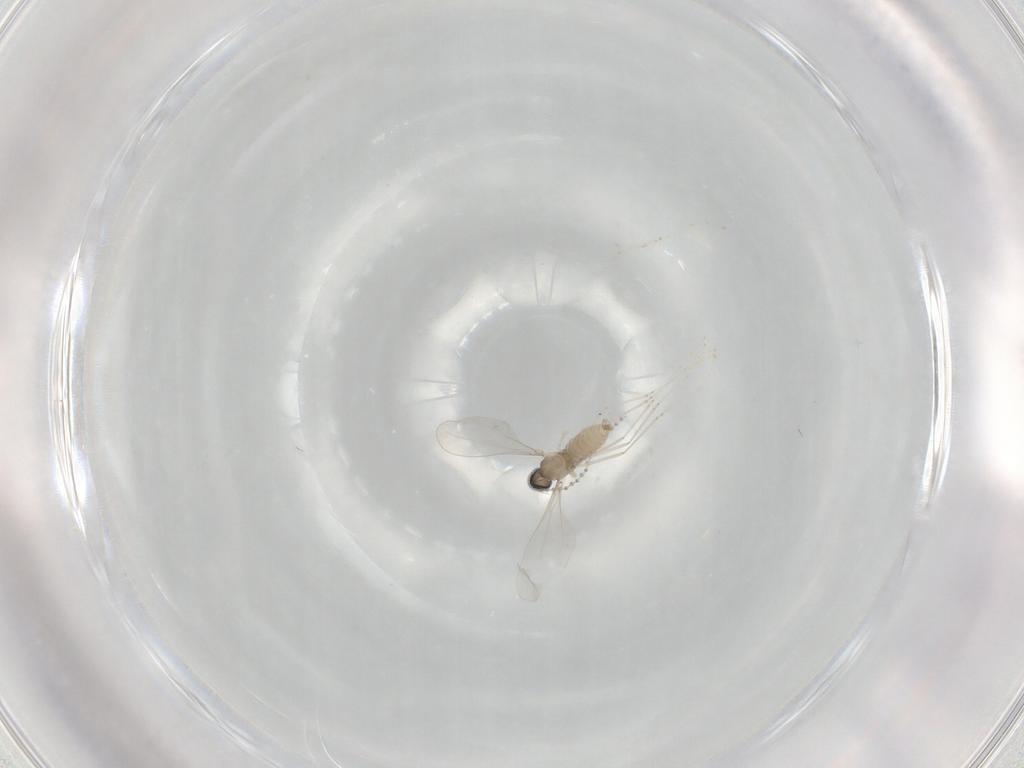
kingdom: Animalia
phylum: Arthropoda
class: Insecta
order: Diptera
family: Cecidomyiidae
